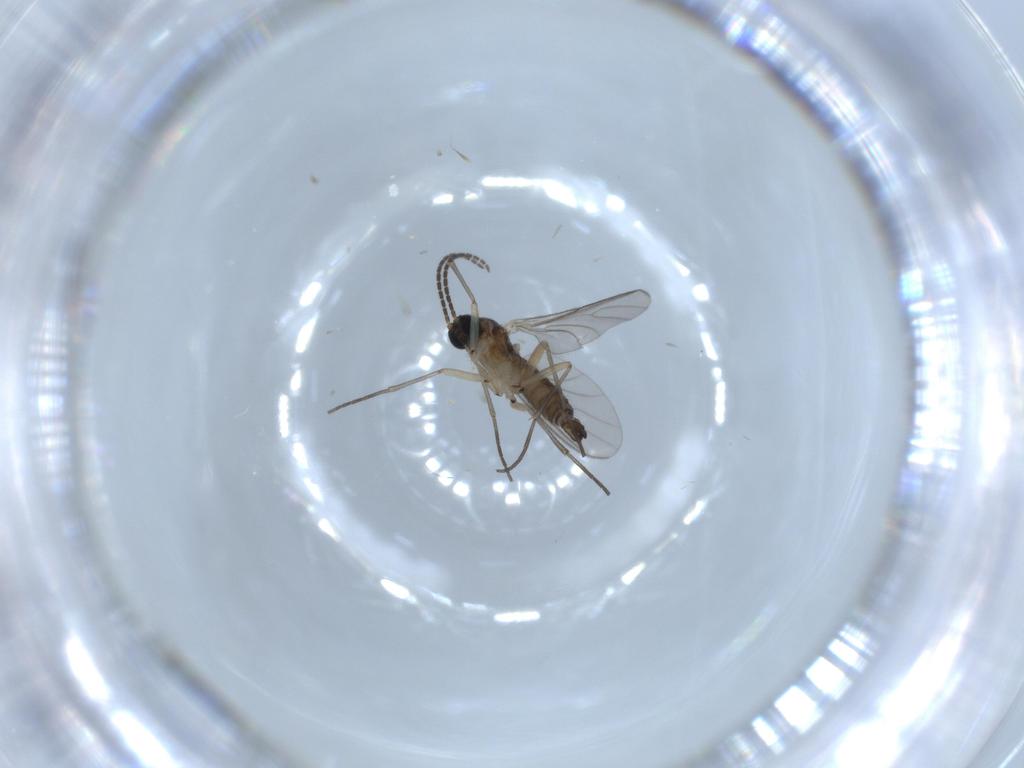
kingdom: Animalia
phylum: Arthropoda
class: Insecta
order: Diptera
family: Sciaridae
